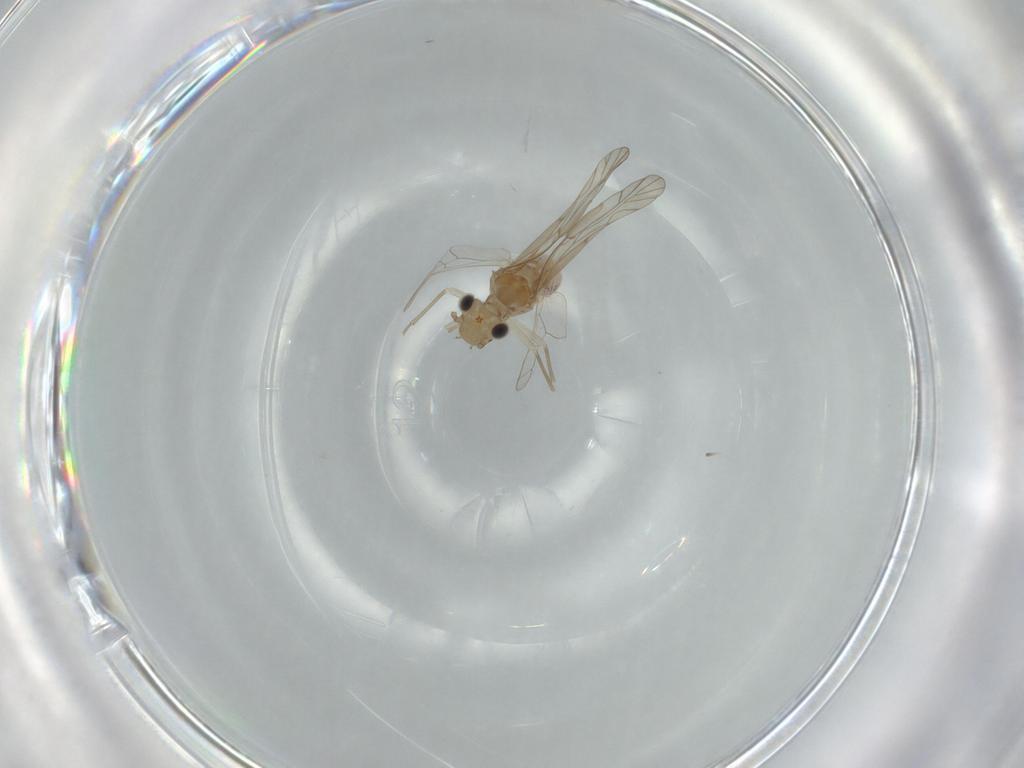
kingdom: Animalia
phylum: Arthropoda
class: Insecta
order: Psocodea
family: Lachesillidae
